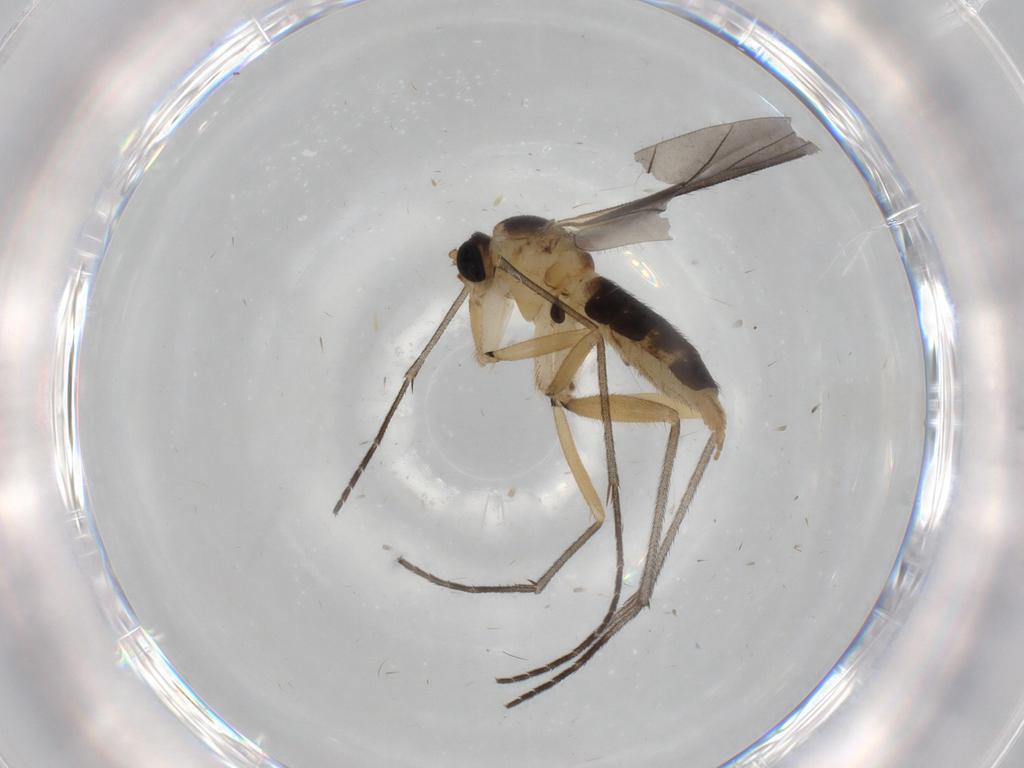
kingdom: Animalia
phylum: Arthropoda
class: Insecta
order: Diptera
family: Sciaridae
